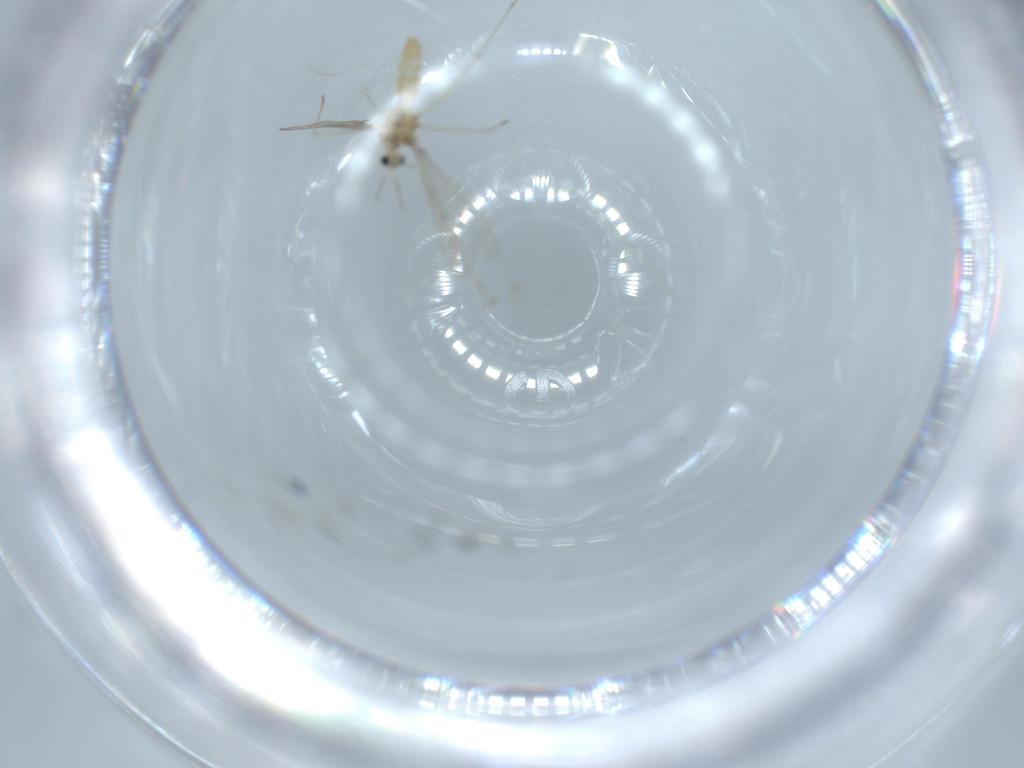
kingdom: Animalia
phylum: Arthropoda
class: Insecta
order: Diptera
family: Cecidomyiidae
